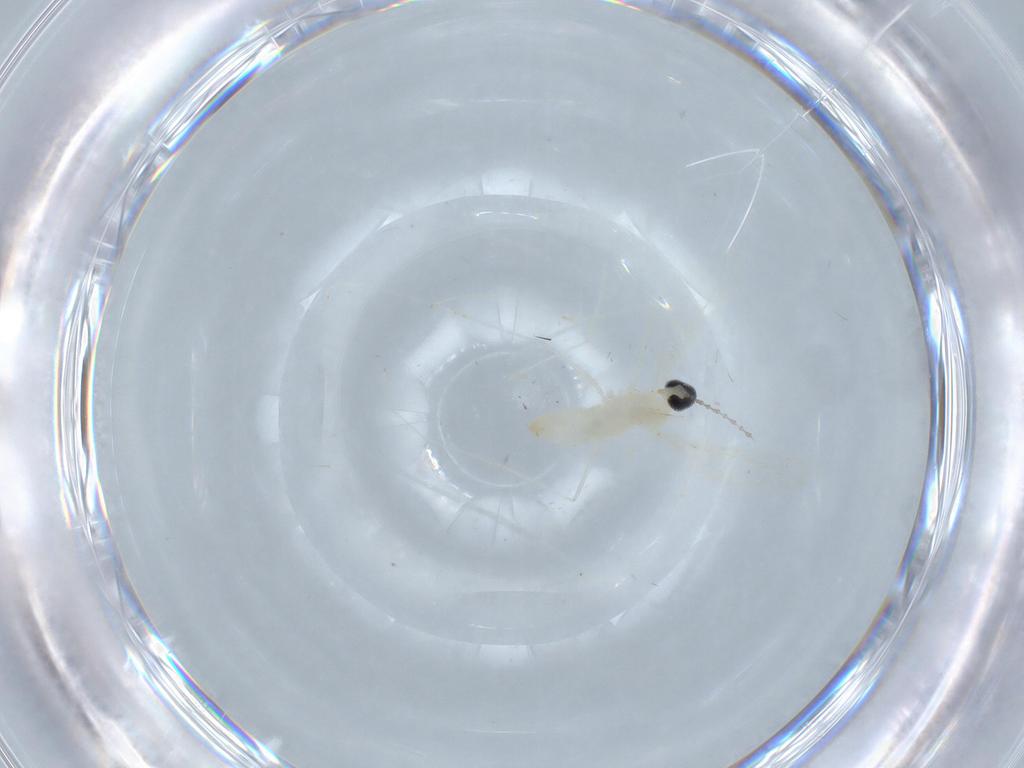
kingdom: Animalia
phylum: Arthropoda
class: Insecta
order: Diptera
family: Cecidomyiidae
